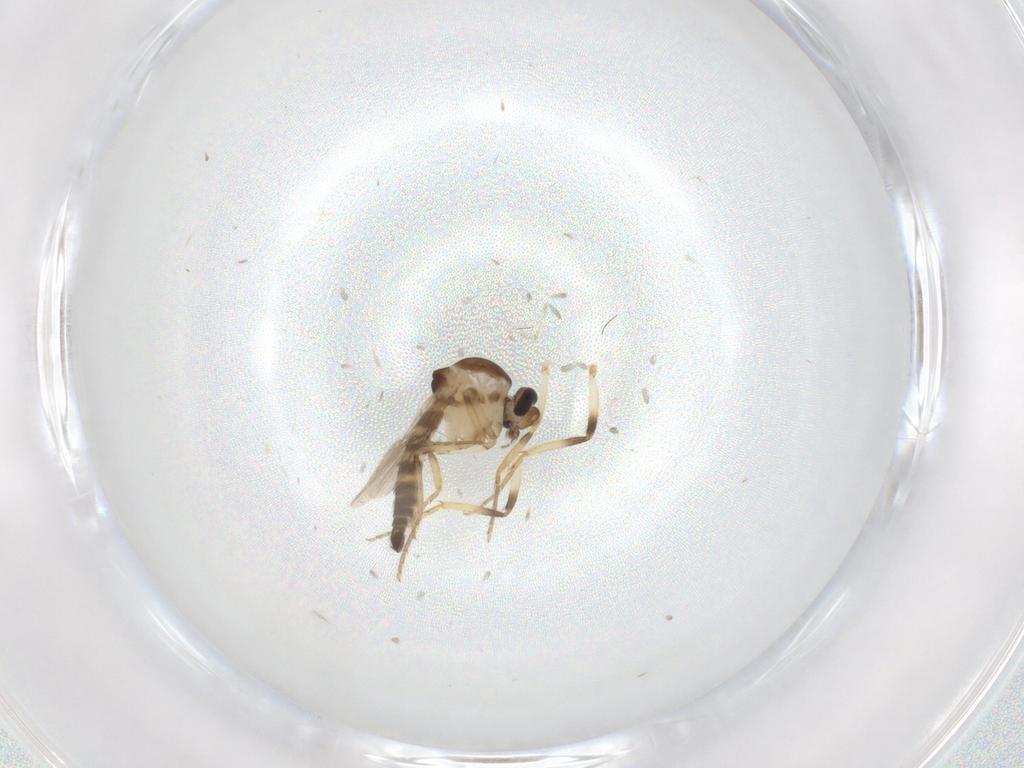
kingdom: Animalia
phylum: Arthropoda
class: Insecta
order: Diptera
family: Ceratopogonidae
